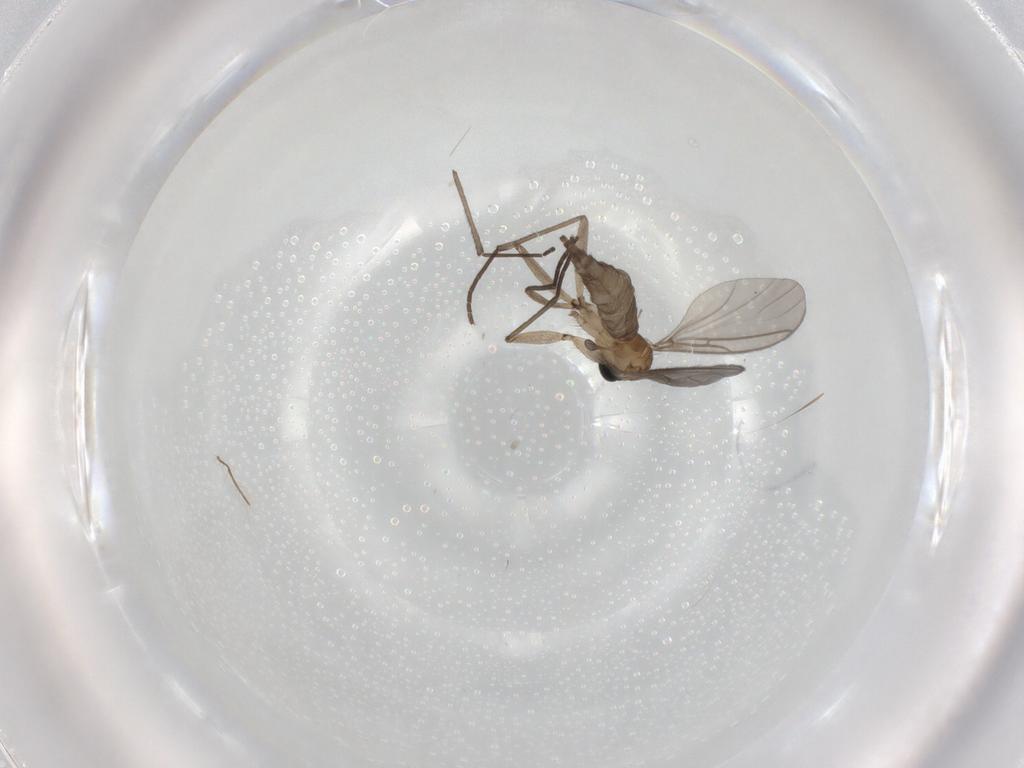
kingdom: Animalia
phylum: Arthropoda
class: Insecta
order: Diptera
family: Sciaridae
